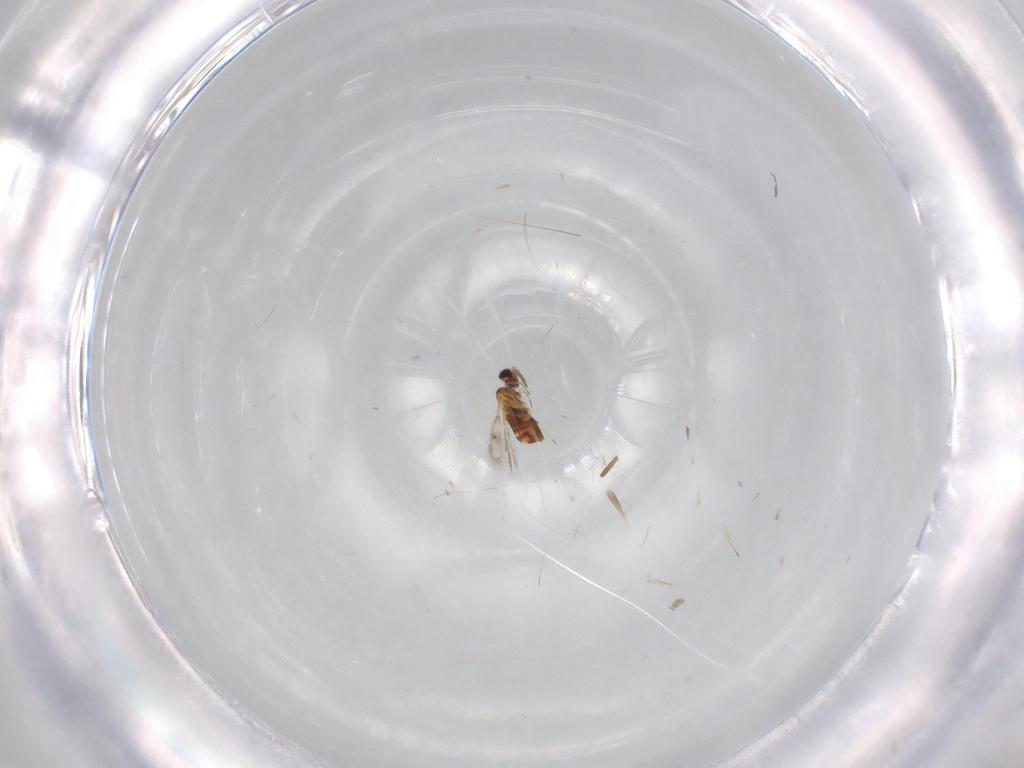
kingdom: Animalia
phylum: Arthropoda
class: Insecta
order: Hymenoptera
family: Trichogrammatidae
